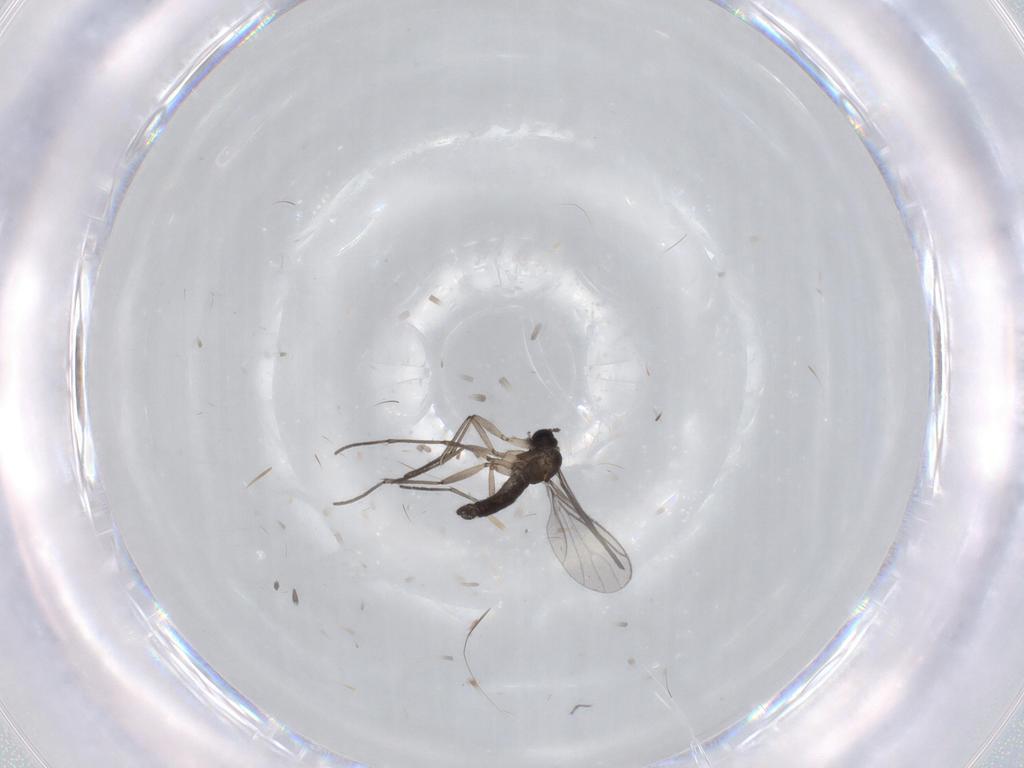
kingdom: Animalia
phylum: Arthropoda
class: Insecta
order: Diptera
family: Sciaridae
